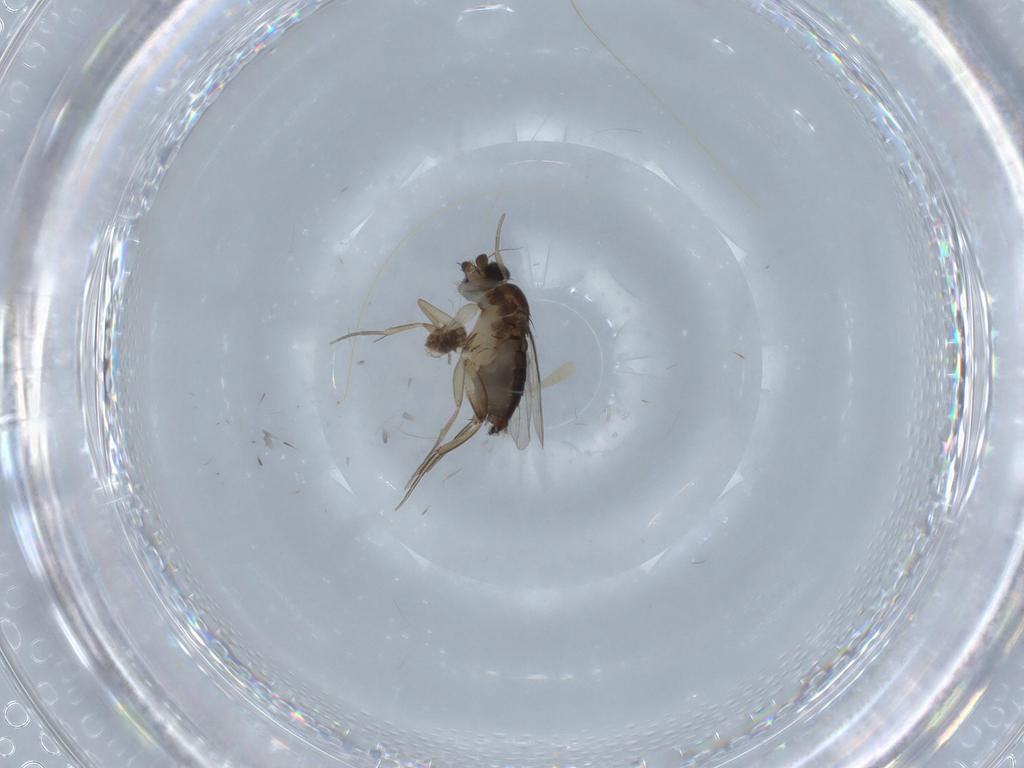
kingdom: Animalia
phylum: Arthropoda
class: Insecta
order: Diptera
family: Phoridae
